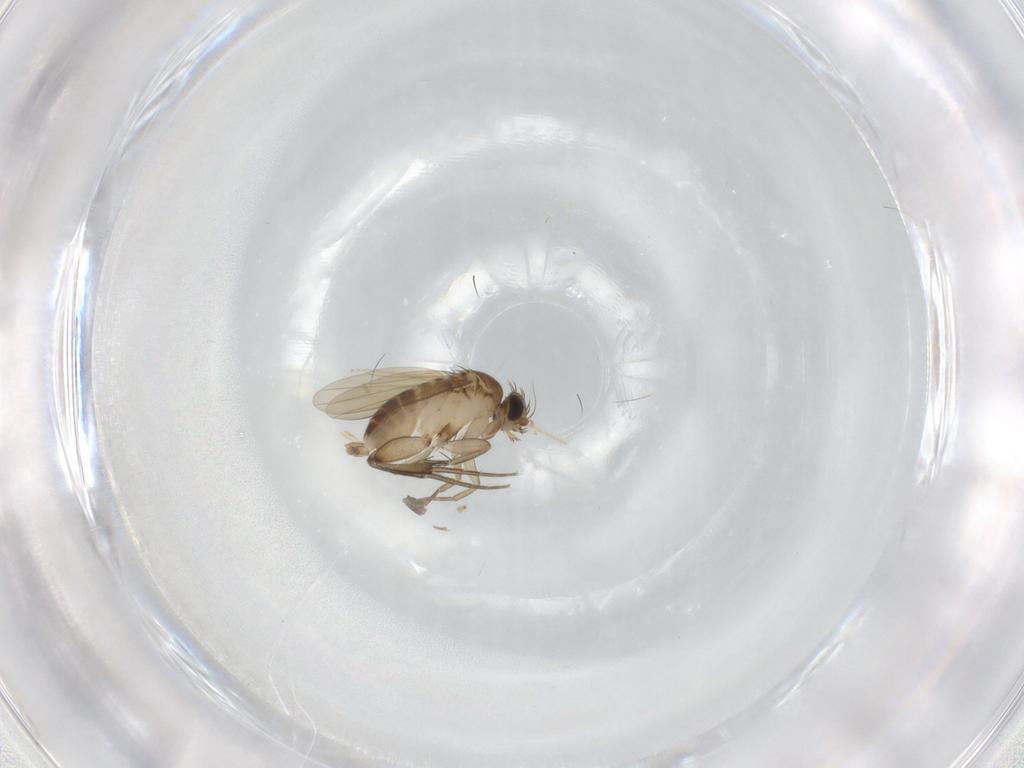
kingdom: Animalia
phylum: Arthropoda
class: Insecta
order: Diptera
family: Phoridae
